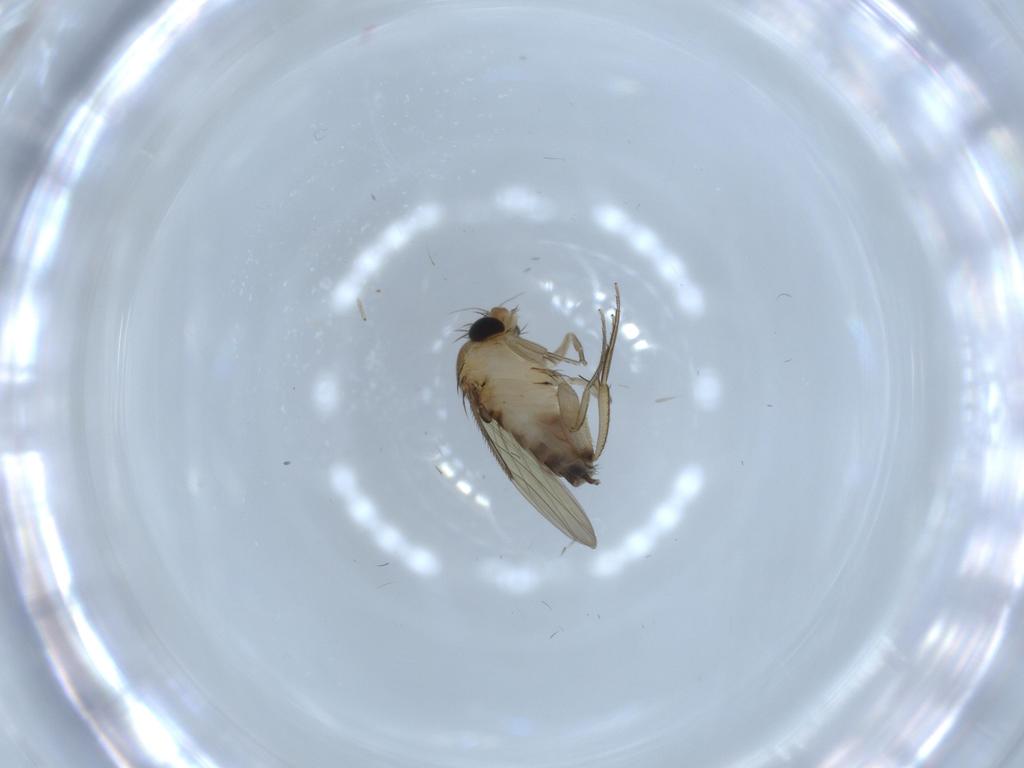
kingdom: Animalia
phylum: Arthropoda
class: Insecta
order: Diptera
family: Phoridae
